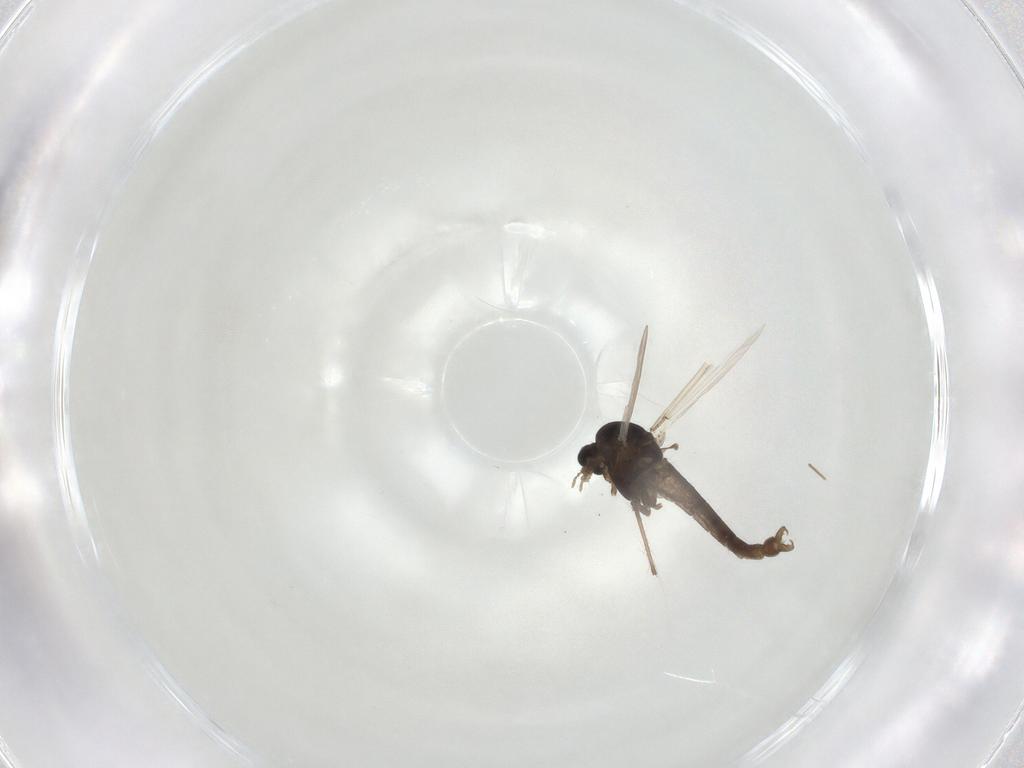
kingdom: Animalia
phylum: Arthropoda
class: Insecta
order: Diptera
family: Chironomidae
